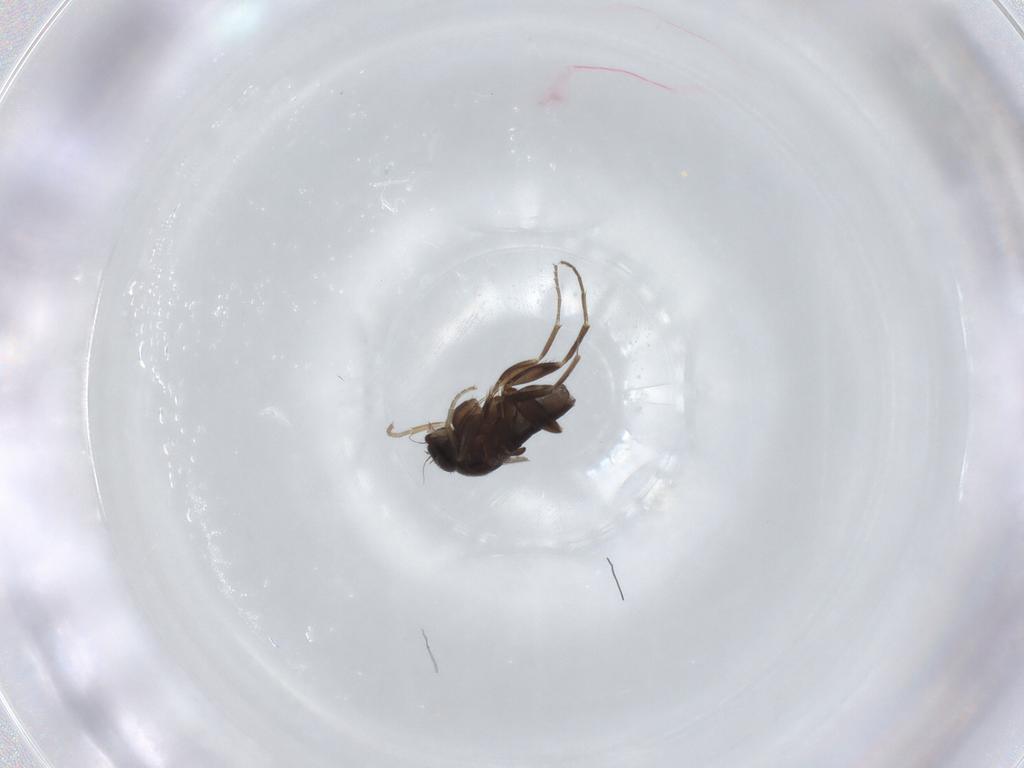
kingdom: Animalia
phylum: Arthropoda
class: Insecta
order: Diptera
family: Phoridae
